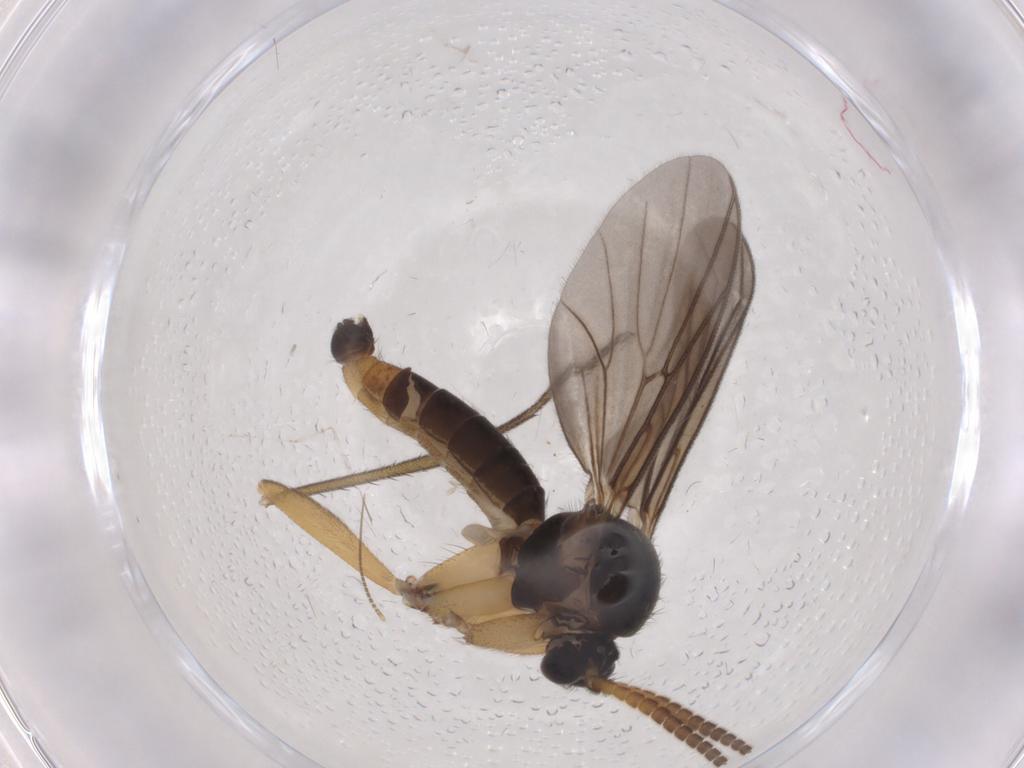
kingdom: Animalia
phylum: Arthropoda
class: Insecta
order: Diptera
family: Mycetophilidae
